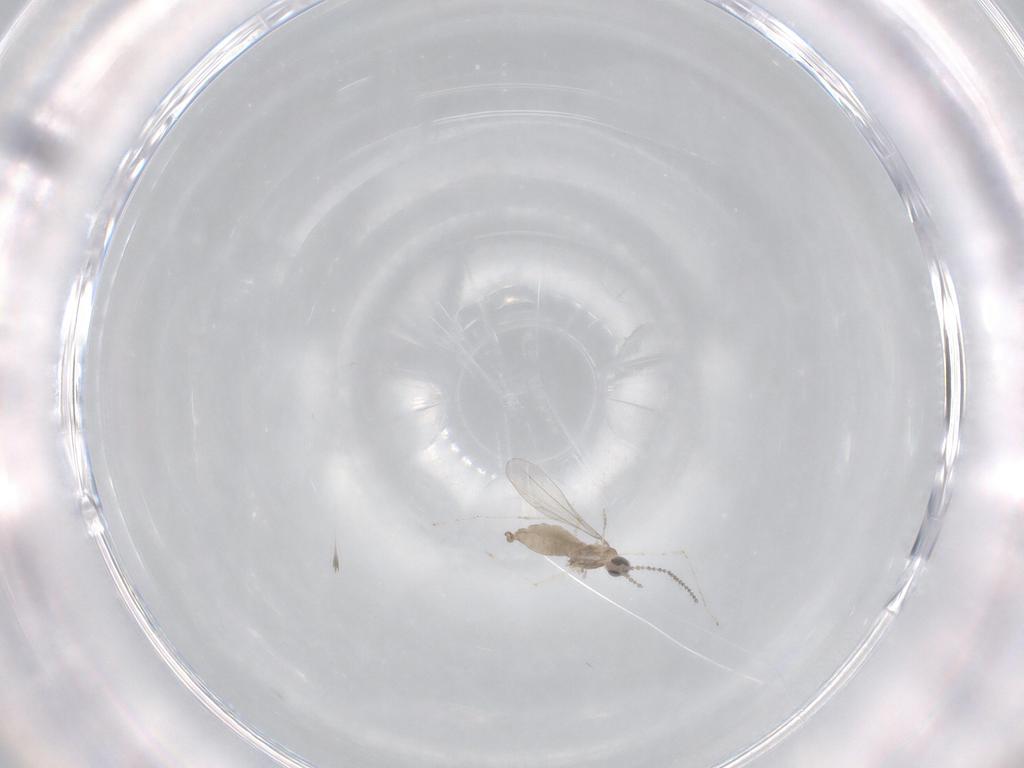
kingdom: Animalia
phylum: Arthropoda
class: Insecta
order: Diptera
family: Cecidomyiidae
